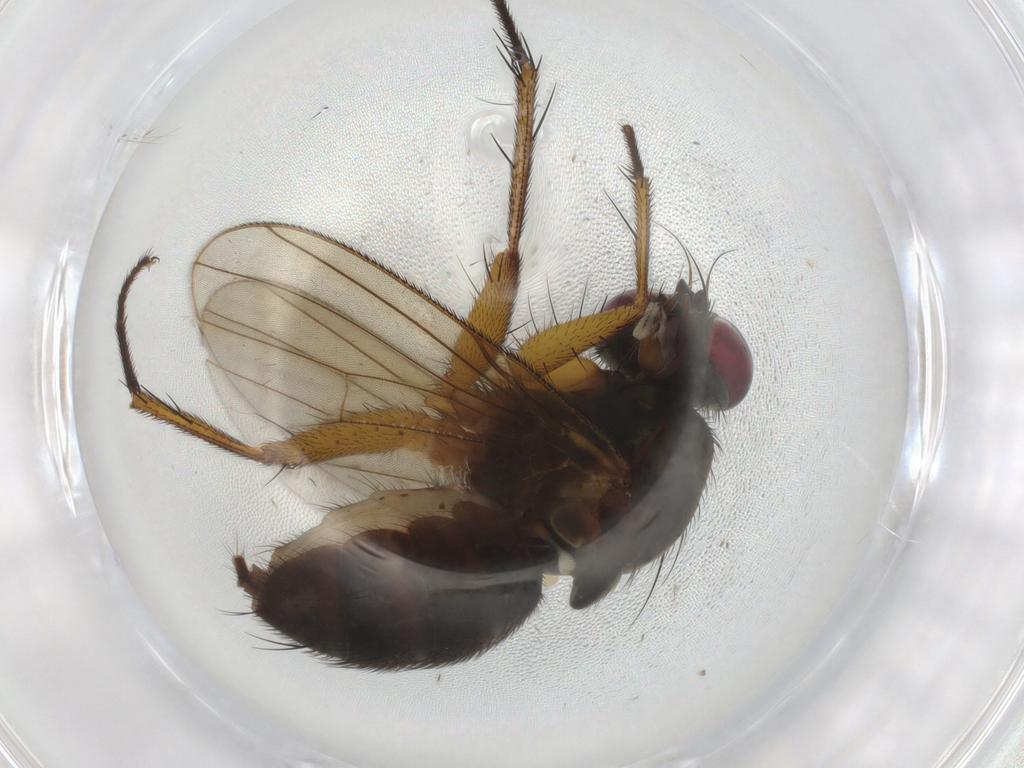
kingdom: Animalia
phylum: Arthropoda
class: Insecta
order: Diptera
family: Muscidae
